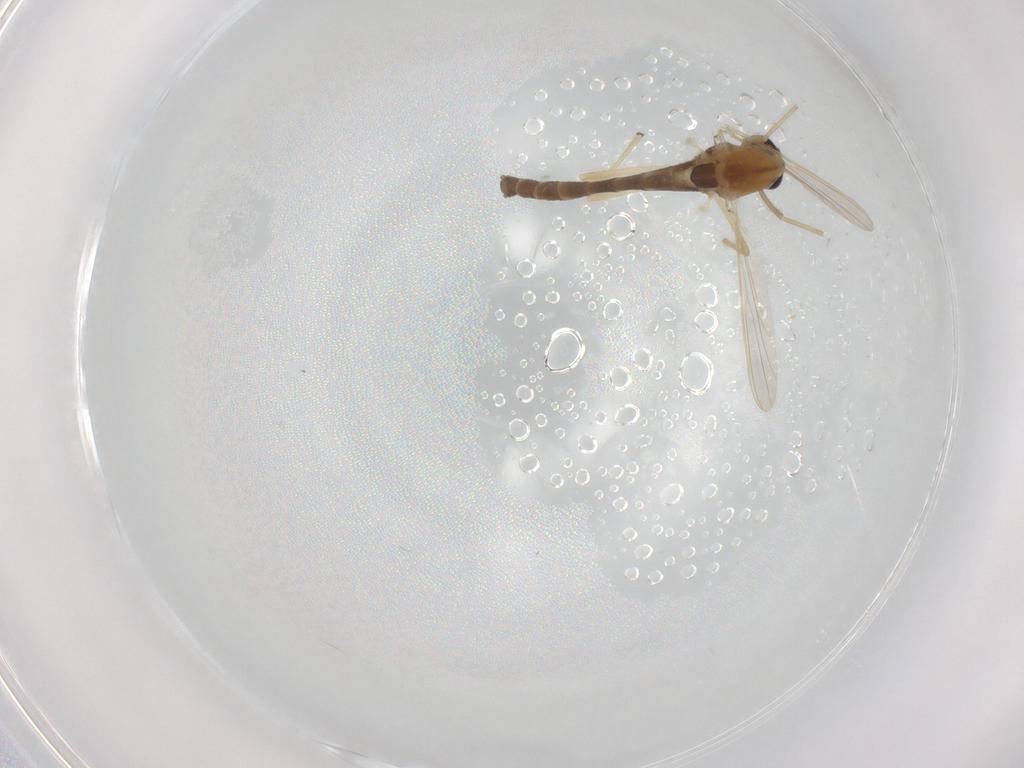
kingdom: Animalia
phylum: Arthropoda
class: Insecta
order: Diptera
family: Chironomidae
